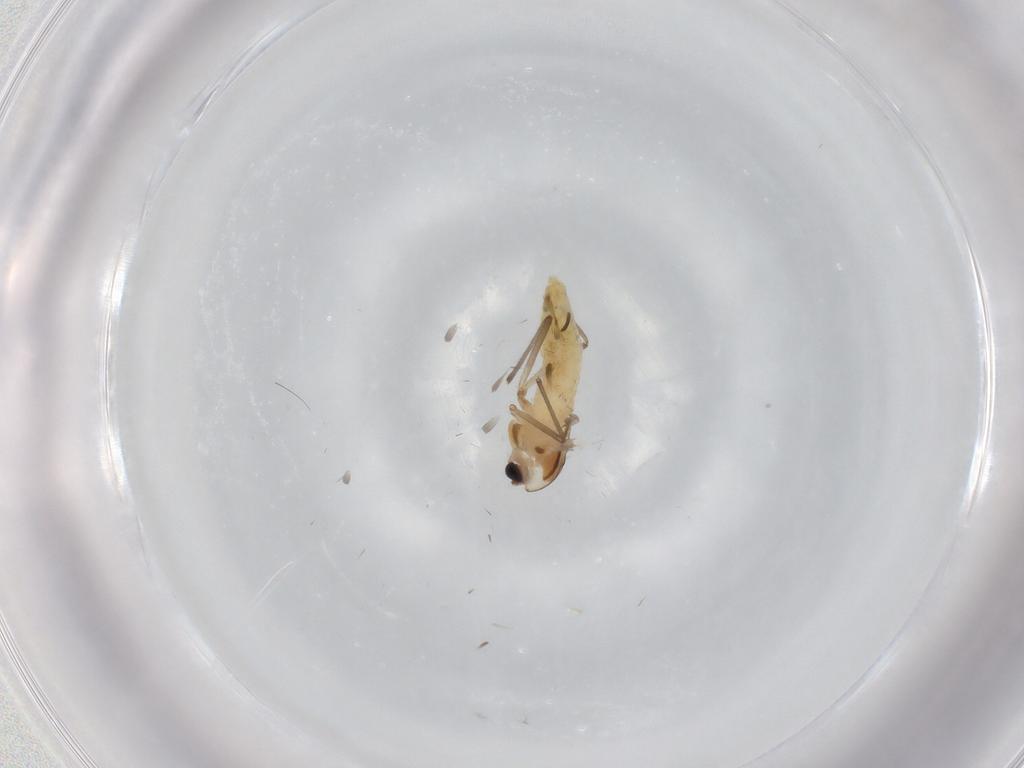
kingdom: Animalia
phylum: Arthropoda
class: Insecta
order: Diptera
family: Chironomidae
